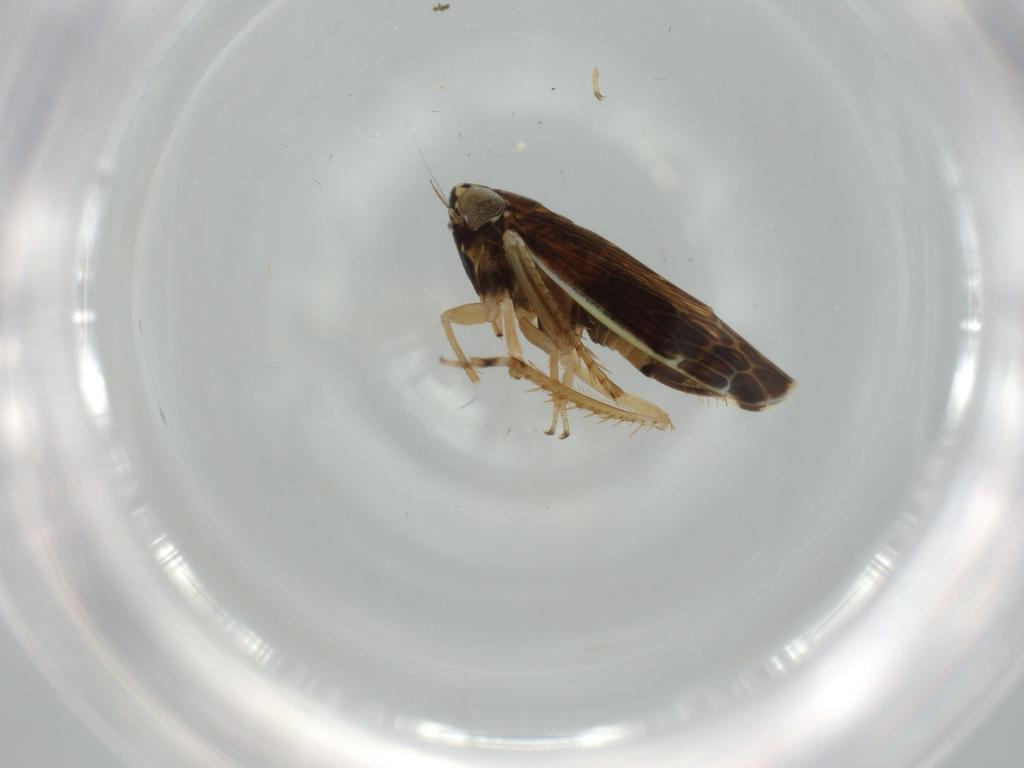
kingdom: Animalia
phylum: Arthropoda
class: Insecta
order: Hemiptera
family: Cicadellidae
